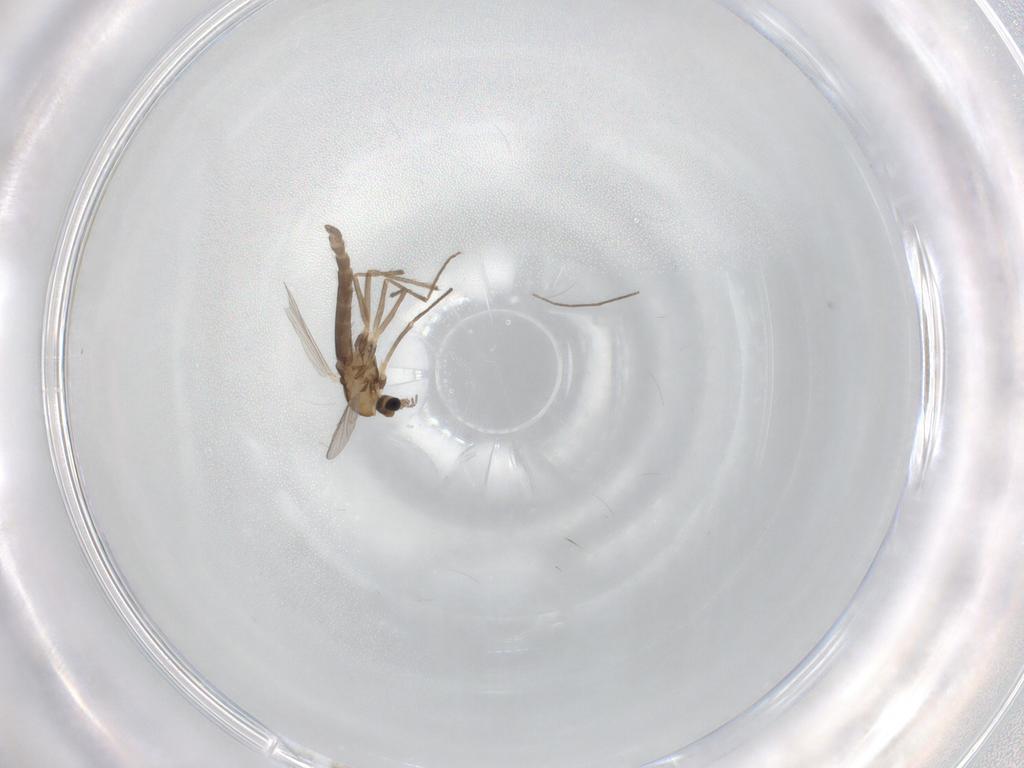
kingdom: Animalia
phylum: Arthropoda
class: Insecta
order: Diptera
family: Chironomidae
